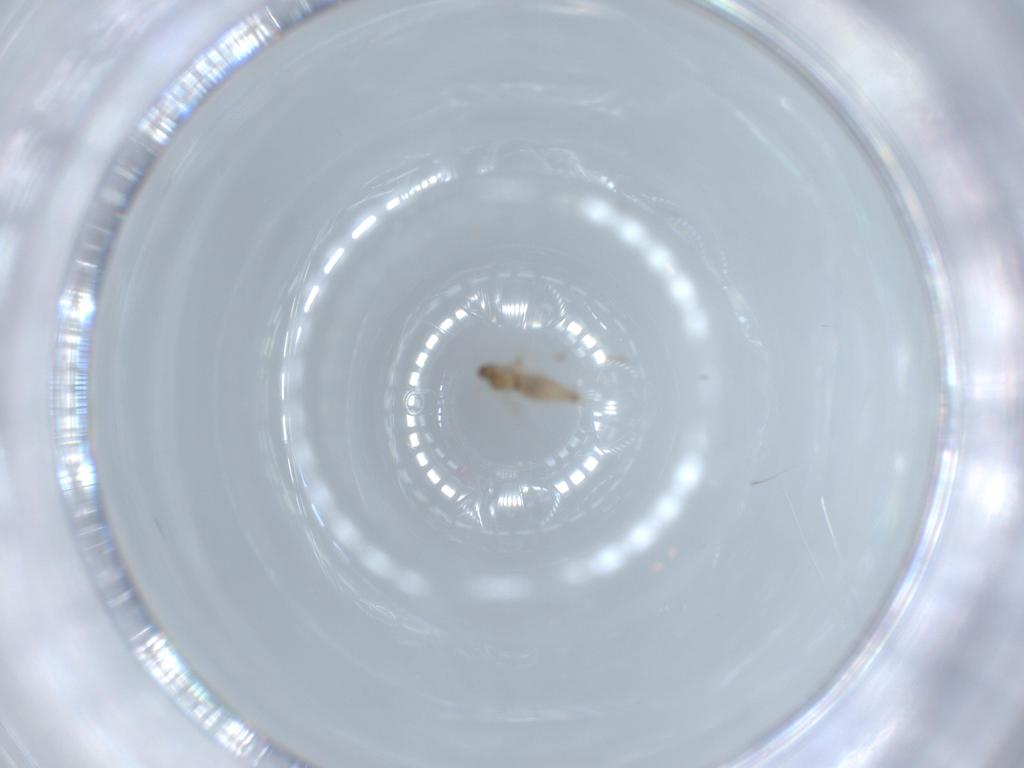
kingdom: Animalia
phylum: Arthropoda
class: Insecta
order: Diptera
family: Cecidomyiidae
